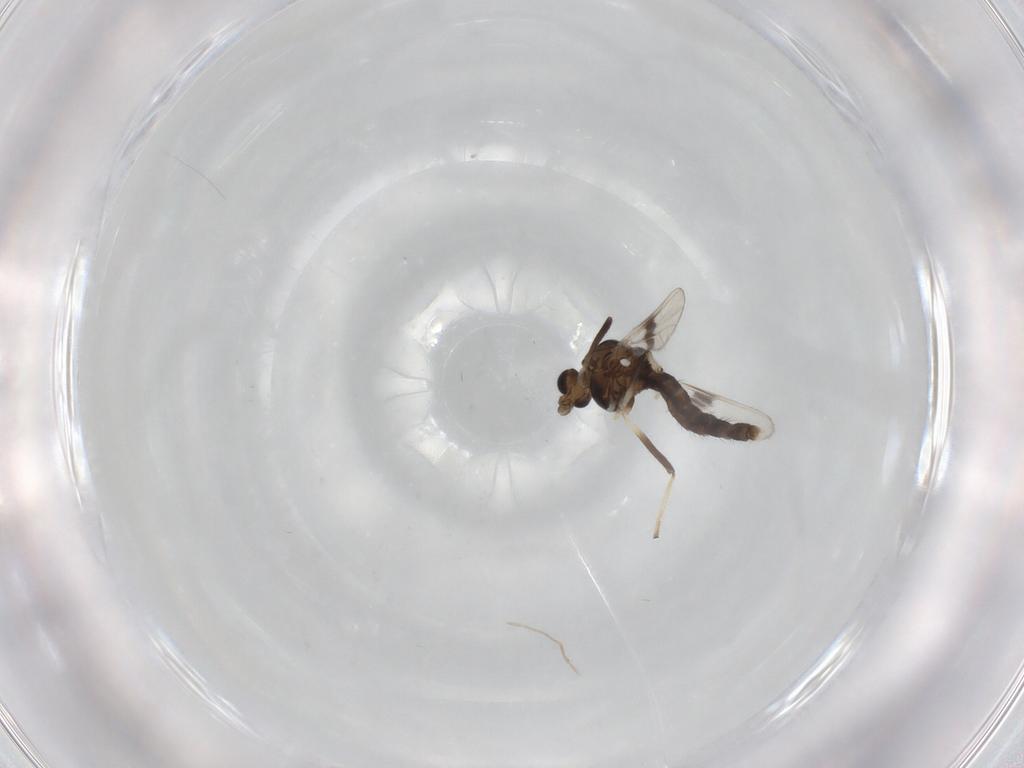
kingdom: Animalia
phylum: Arthropoda
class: Insecta
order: Diptera
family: Chironomidae
